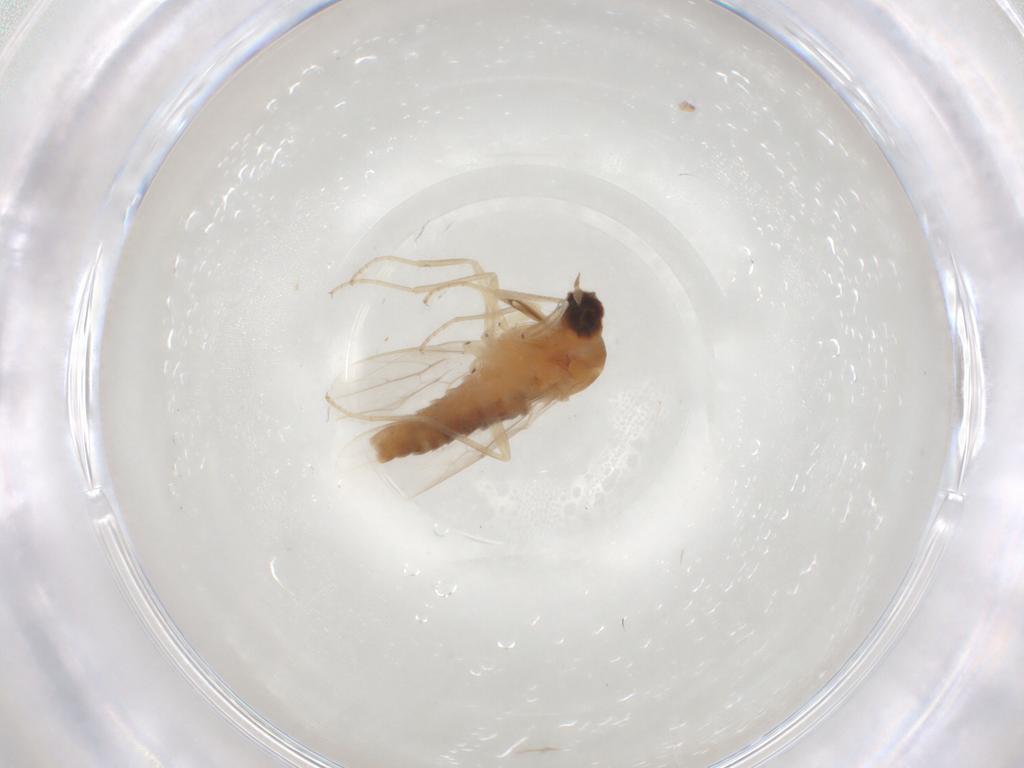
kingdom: Animalia
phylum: Arthropoda
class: Insecta
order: Diptera
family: Scenopinidae
